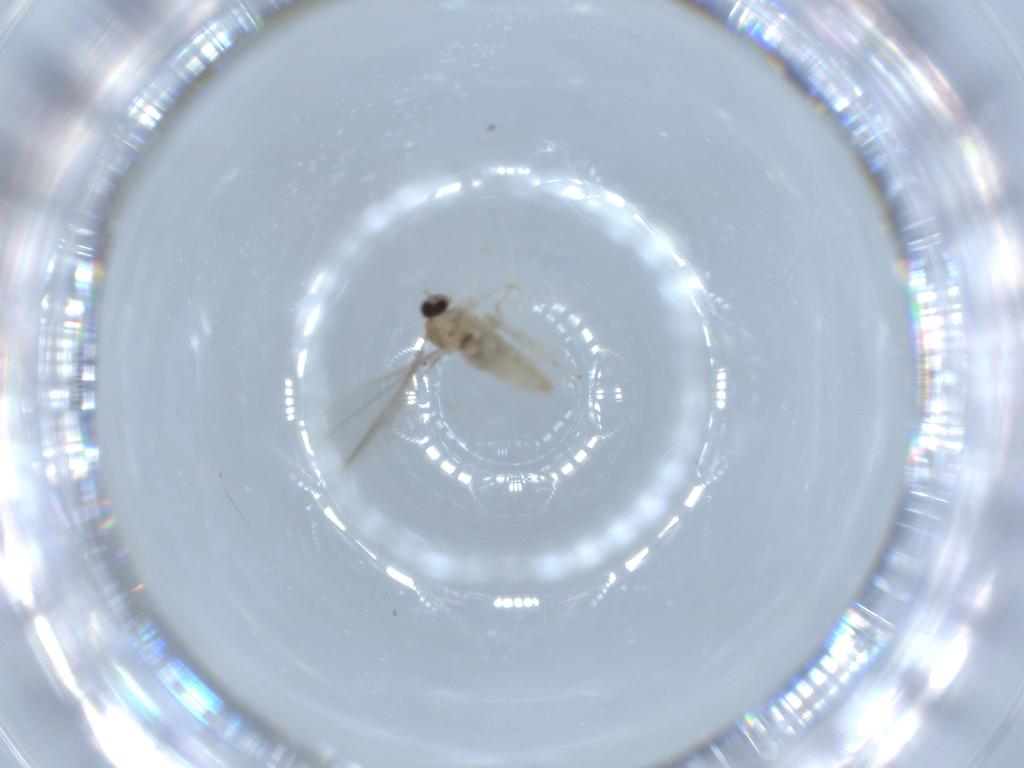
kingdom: Animalia
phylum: Arthropoda
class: Insecta
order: Diptera
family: Cecidomyiidae
